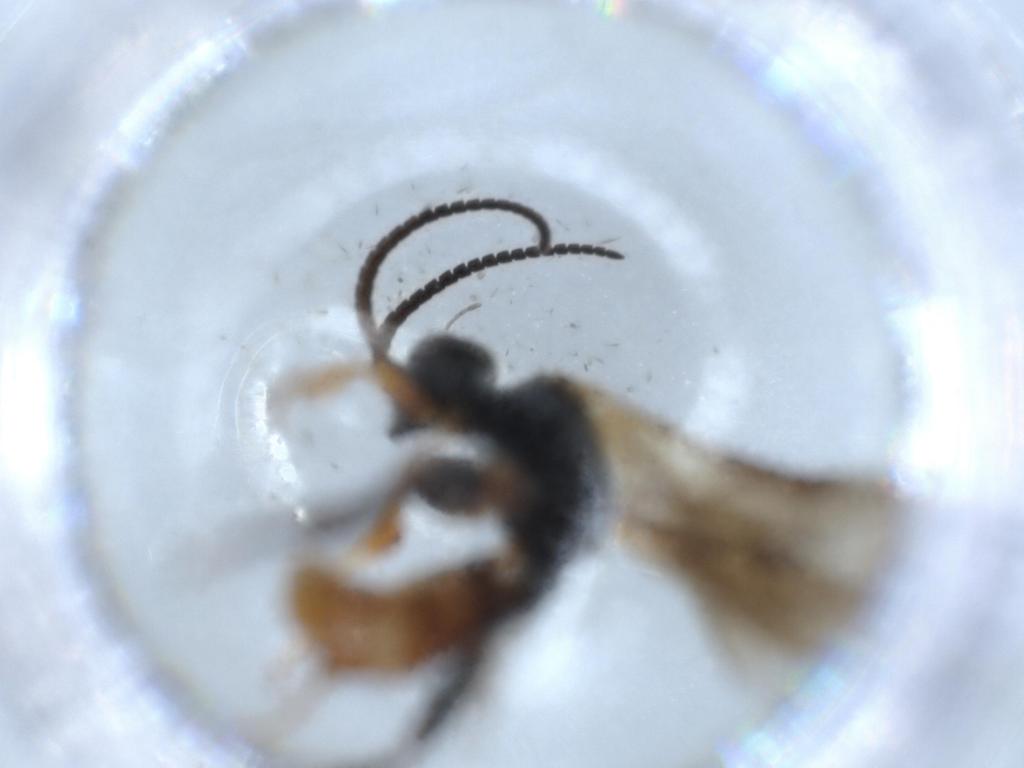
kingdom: Animalia
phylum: Arthropoda
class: Insecta
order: Hymenoptera
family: Ichneumonidae
